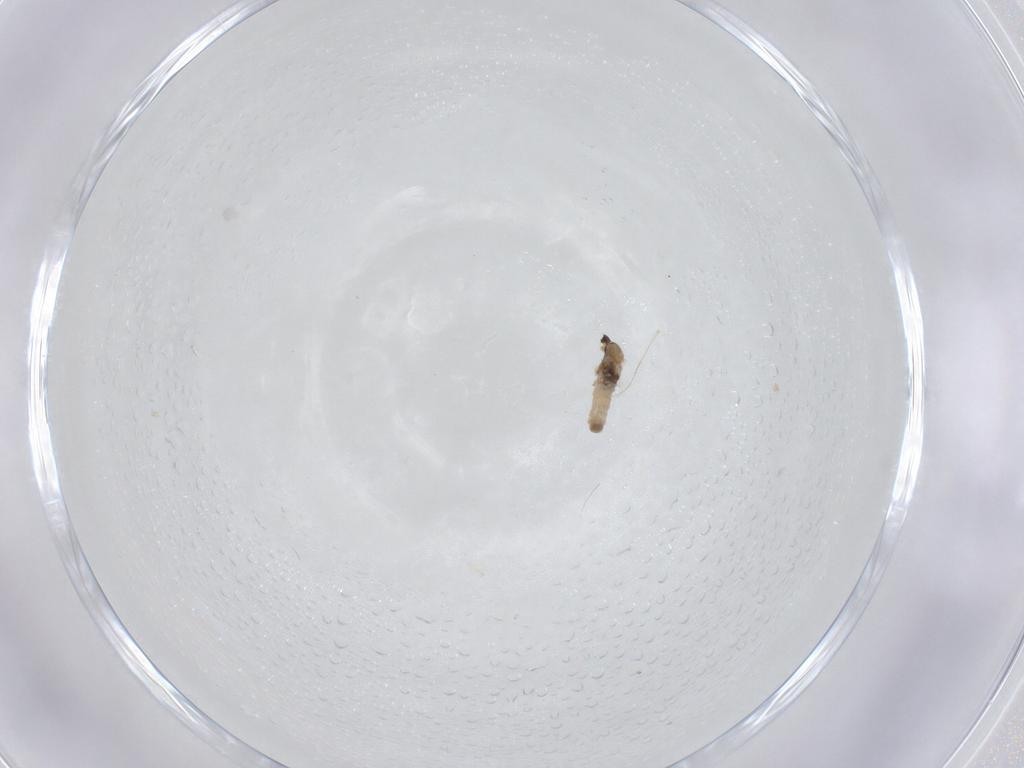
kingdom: Animalia
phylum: Arthropoda
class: Insecta
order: Diptera
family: Cecidomyiidae
